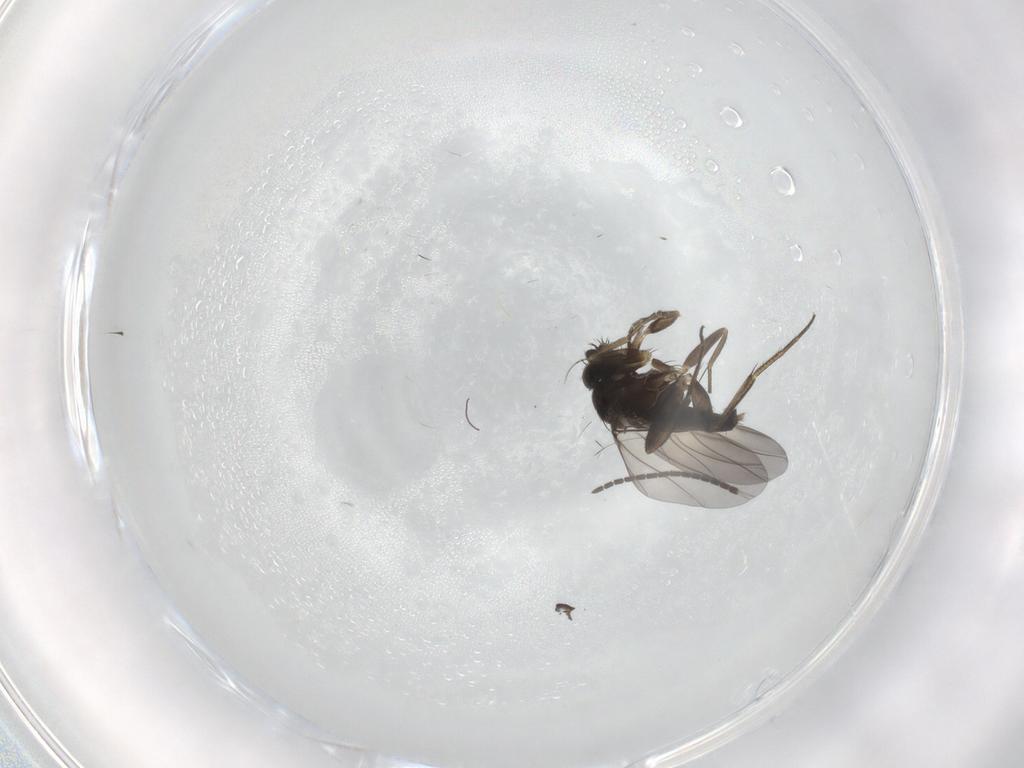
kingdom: Animalia
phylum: Arthropoda
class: Insecta
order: Diptera
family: Phoridae
